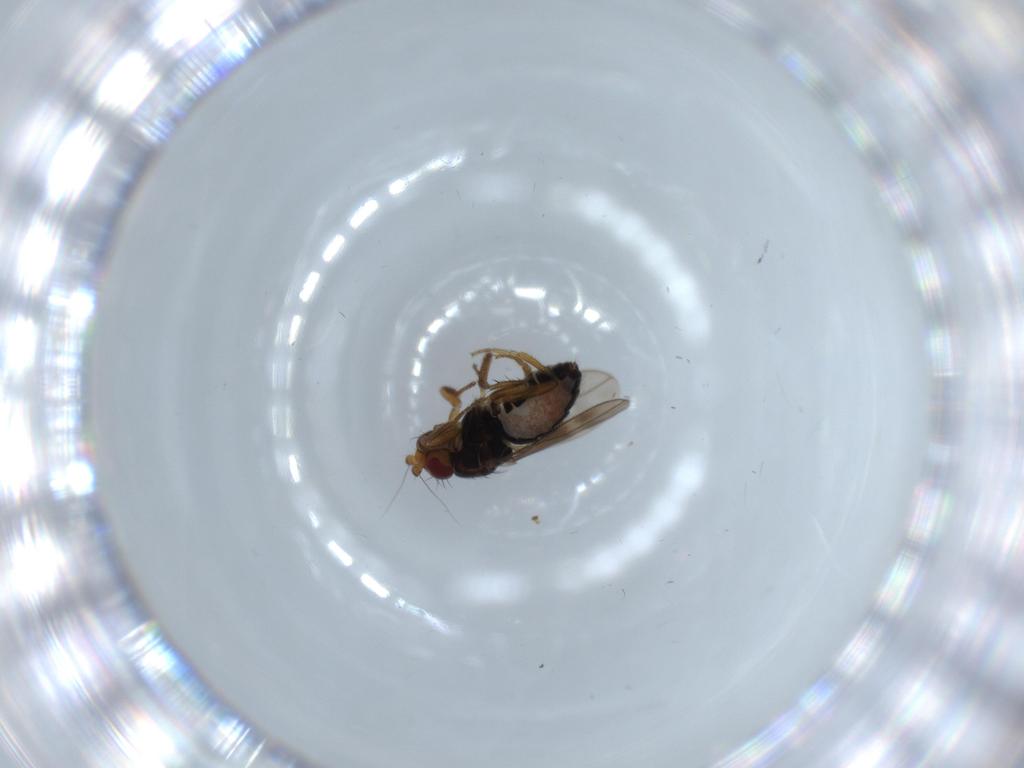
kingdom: Animalia
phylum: Arthropoda
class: Insecta
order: Diptera
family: Sphaeroceridae
